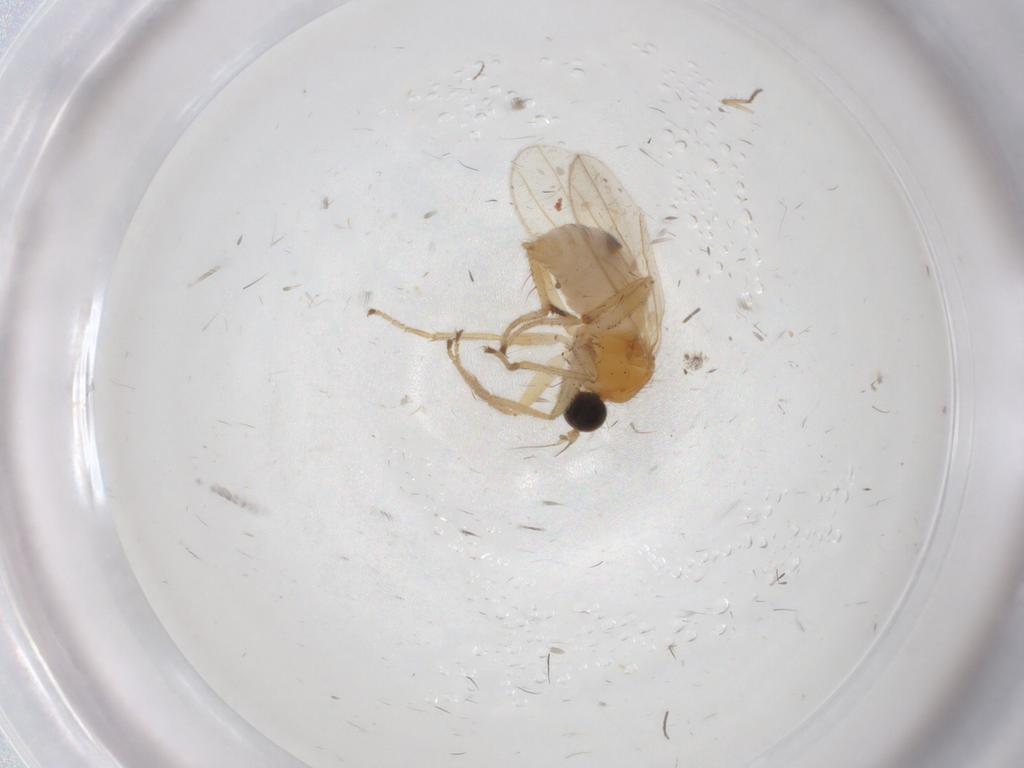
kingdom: Animalia
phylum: Arthropoda
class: Insecta
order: Diptera
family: Hybotidae
